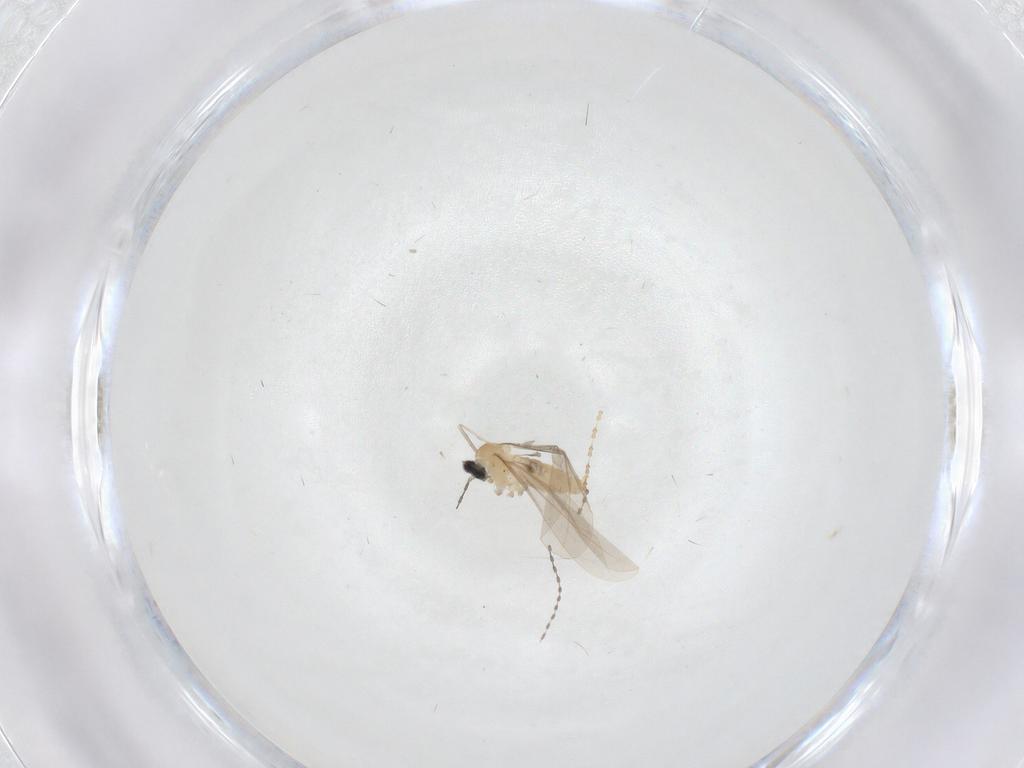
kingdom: Animalia
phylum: Arthropoda
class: Insecta
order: Diptera
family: Cecidomyiidae
